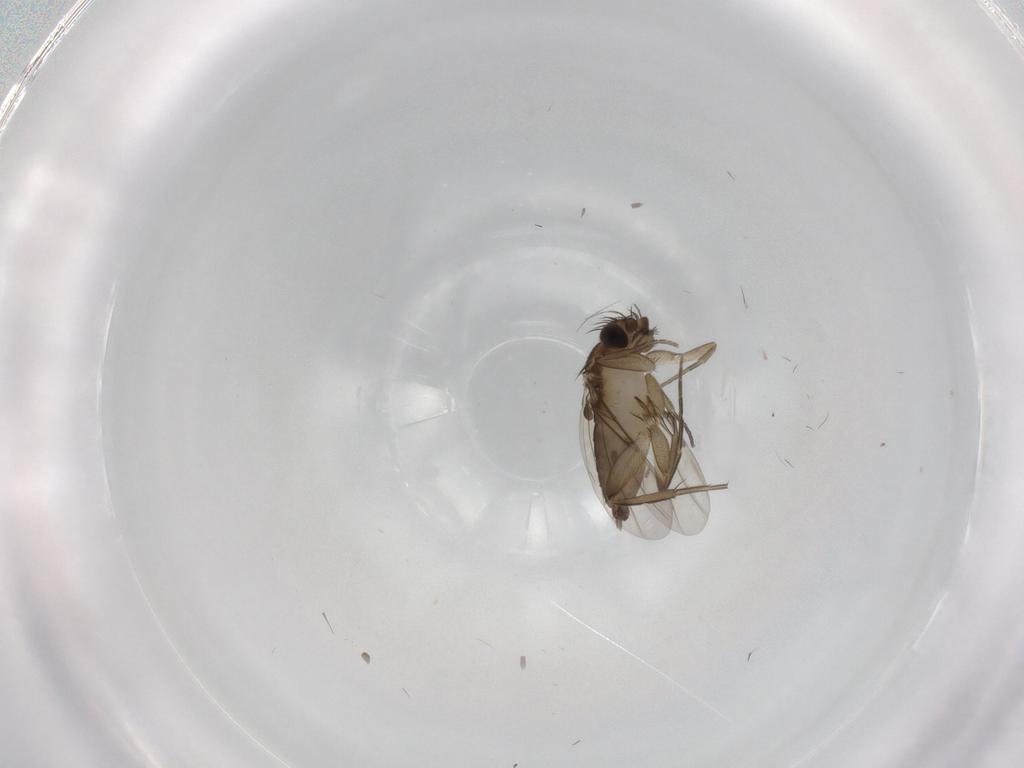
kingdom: Animalia
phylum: Arthropoda
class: Insecta
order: Diptera
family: Phoridae
